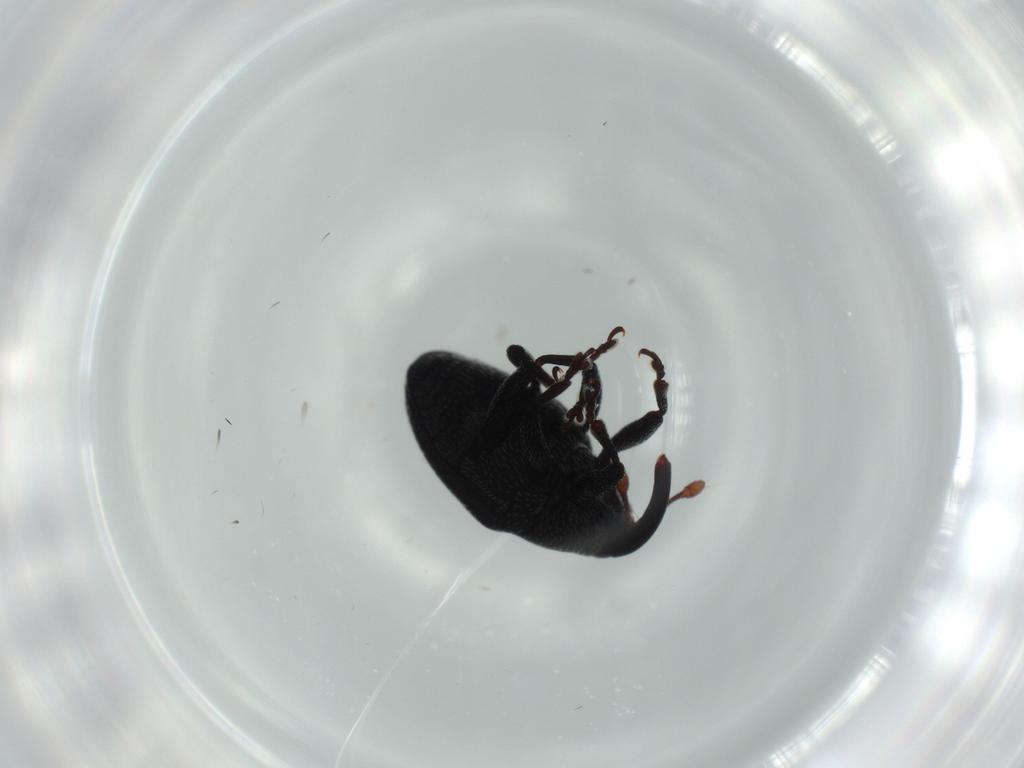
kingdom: Animalia
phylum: Arthropoda
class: Insecta
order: Coleoptera
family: Curculionidae
